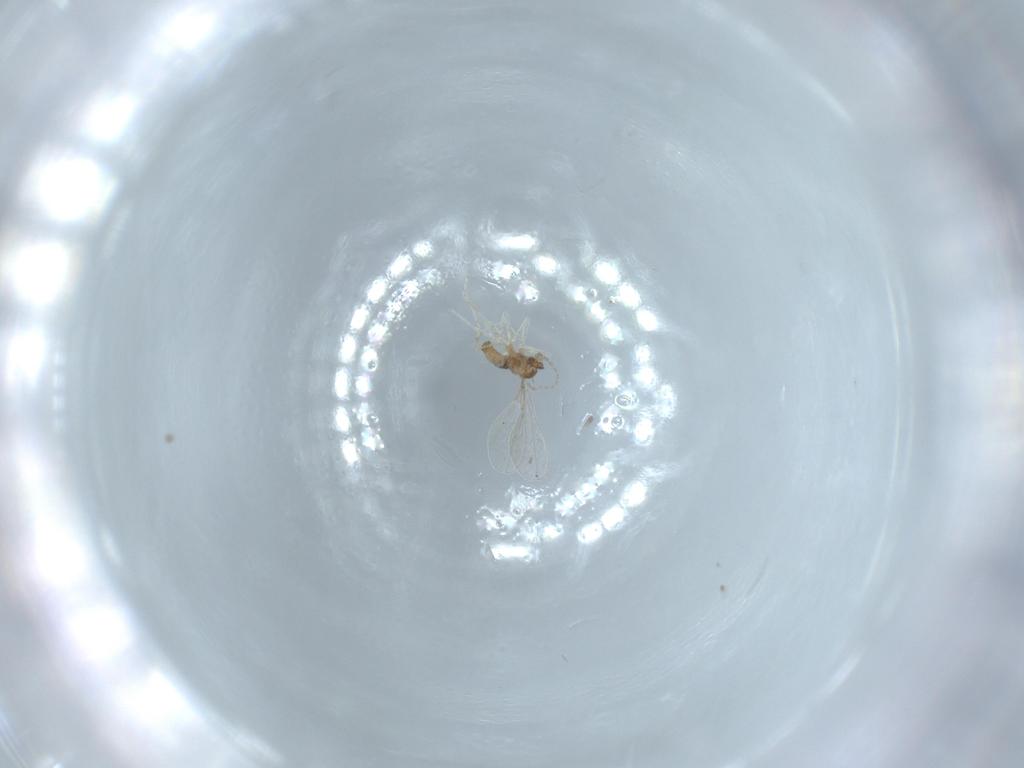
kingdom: Animalia
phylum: Arthropoda
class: Insecta
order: Diptera
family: Cecidomyiidae
